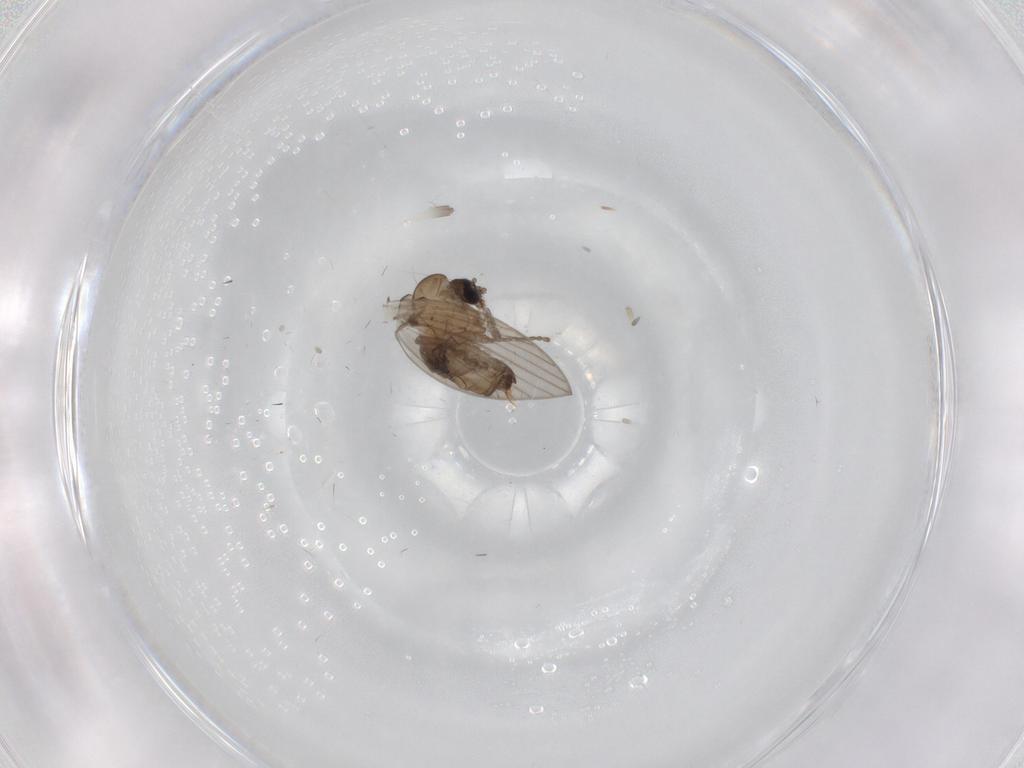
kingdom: Animalia
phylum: Arthropoda
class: Insecta
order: Diptera
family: Psychodidae
